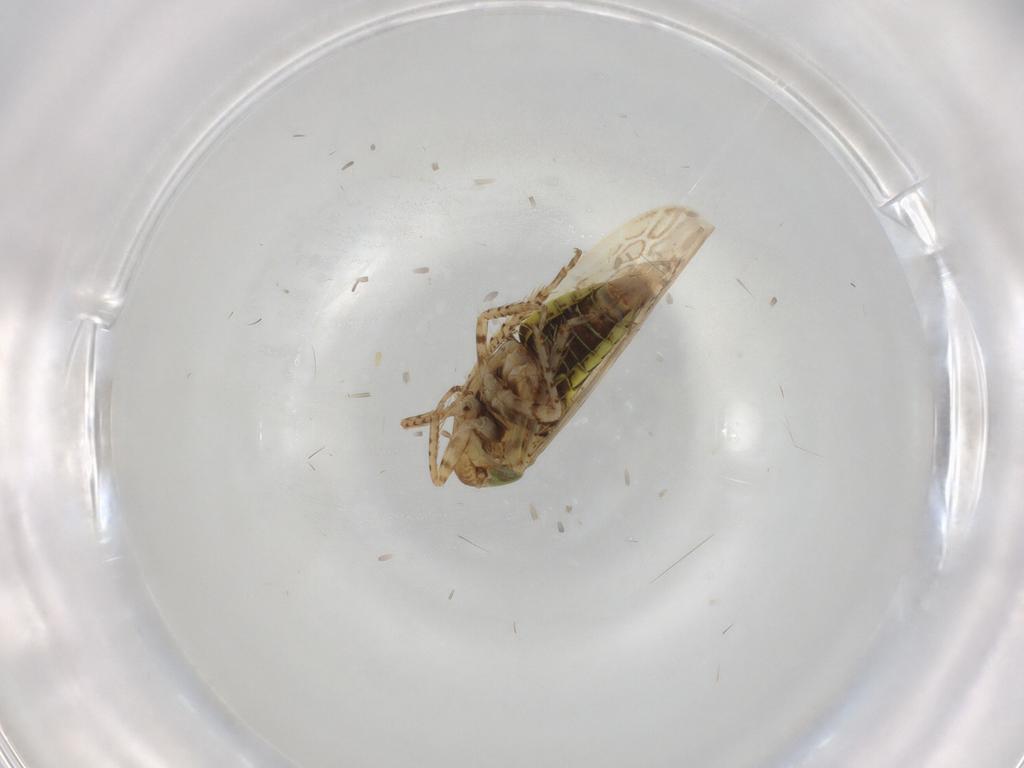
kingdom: Animalia
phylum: Arthropoda
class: Insecta
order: Hemiptera
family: Cicadellidae
